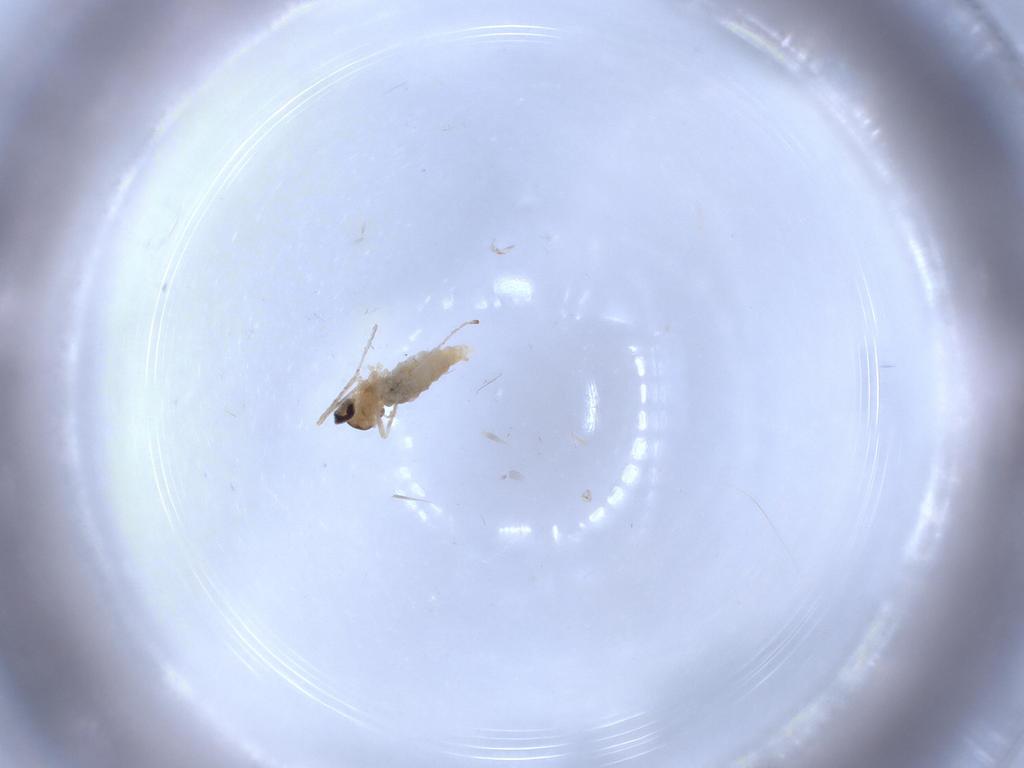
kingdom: Animalia
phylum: Arthropoda
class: Insecta
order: Diptera
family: Cecidomyiidae
